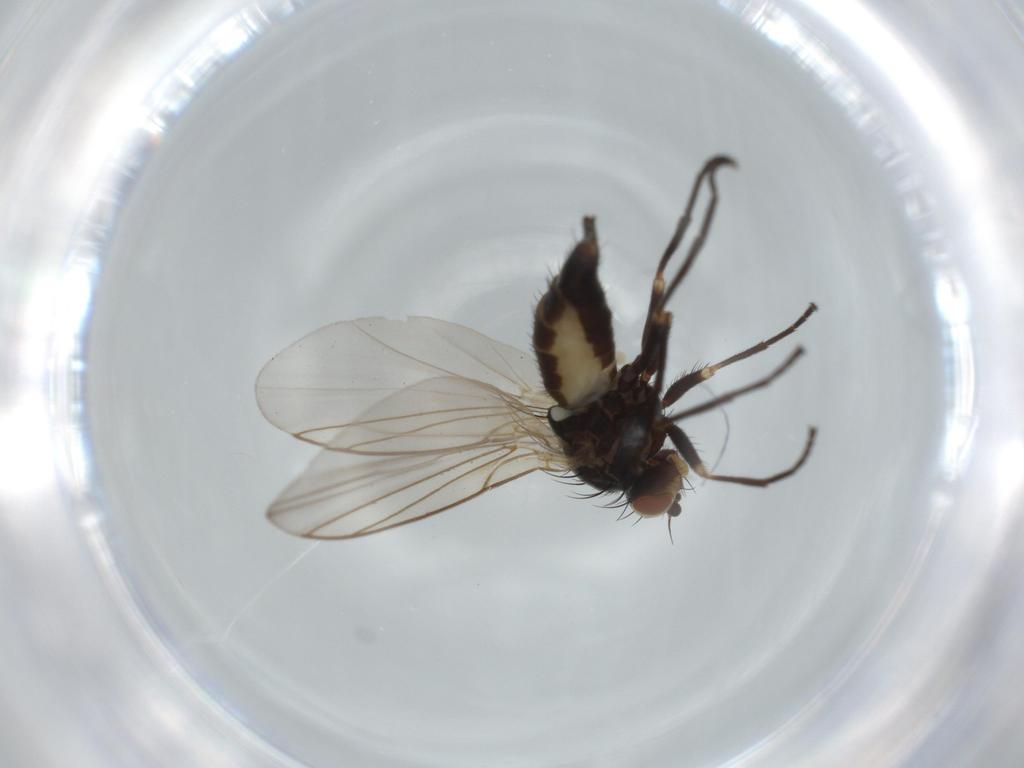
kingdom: Animalia
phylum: Arthropoda
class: Insecta
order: Diptera
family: Agromyzidae
